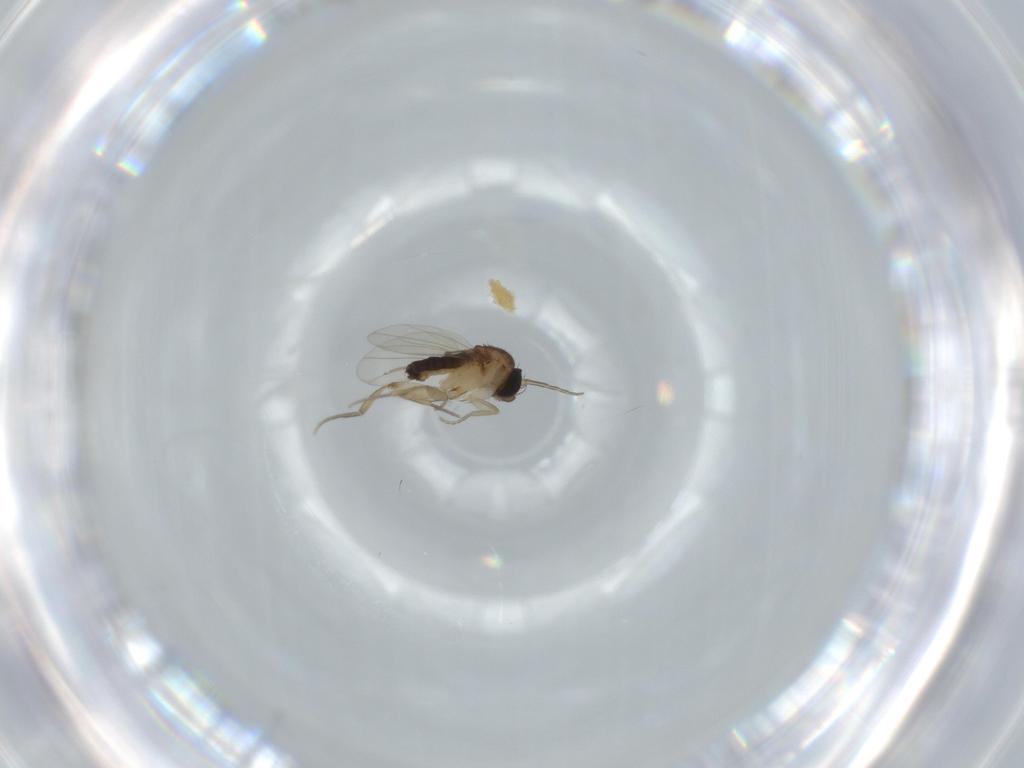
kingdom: Animalia
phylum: Arthropoda
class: Insecta
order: Diptera
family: Phoridae
